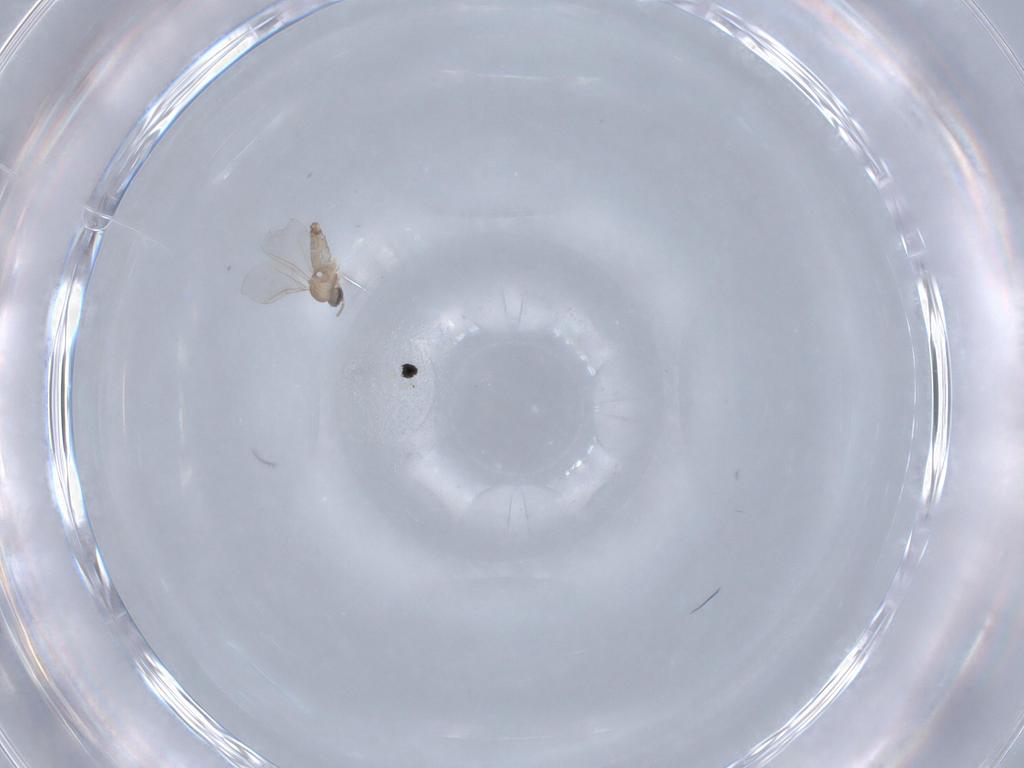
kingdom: Animalia
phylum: Arthropoda
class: Insecta
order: Diptera
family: Cecidomyiidae
